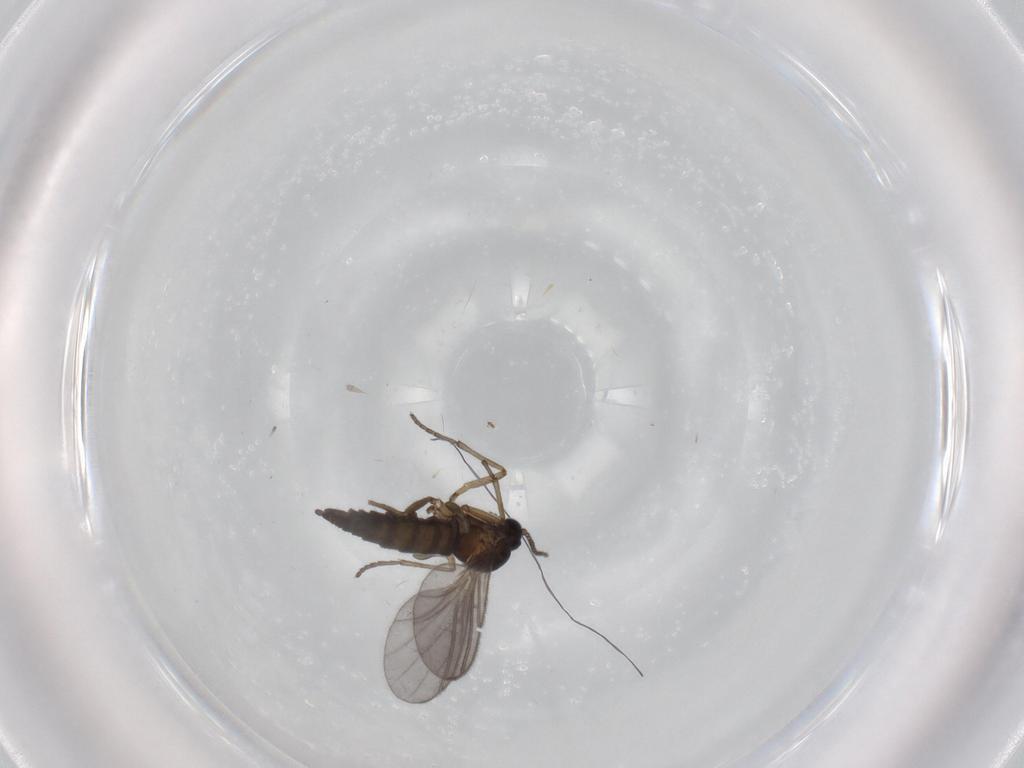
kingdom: Animalia
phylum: Arthropoda
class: Insecta
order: Diptera
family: Sciaridae
